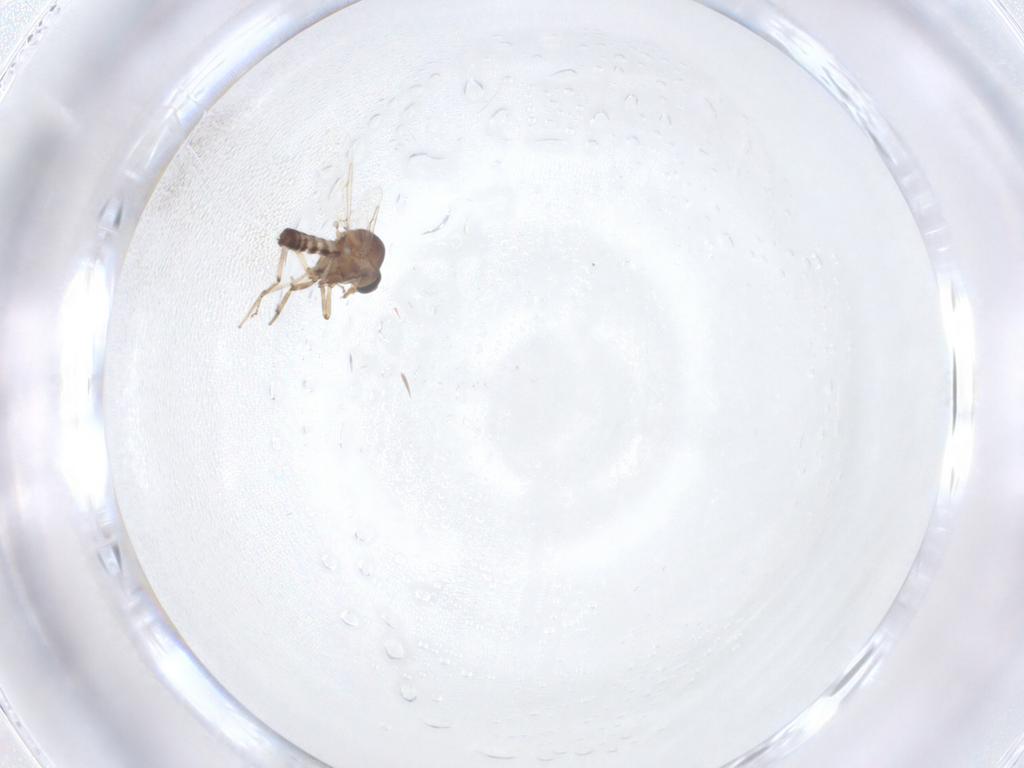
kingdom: Animalia
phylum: Arthropoda
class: Insecta
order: Diptera
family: Ceratopogonidae
